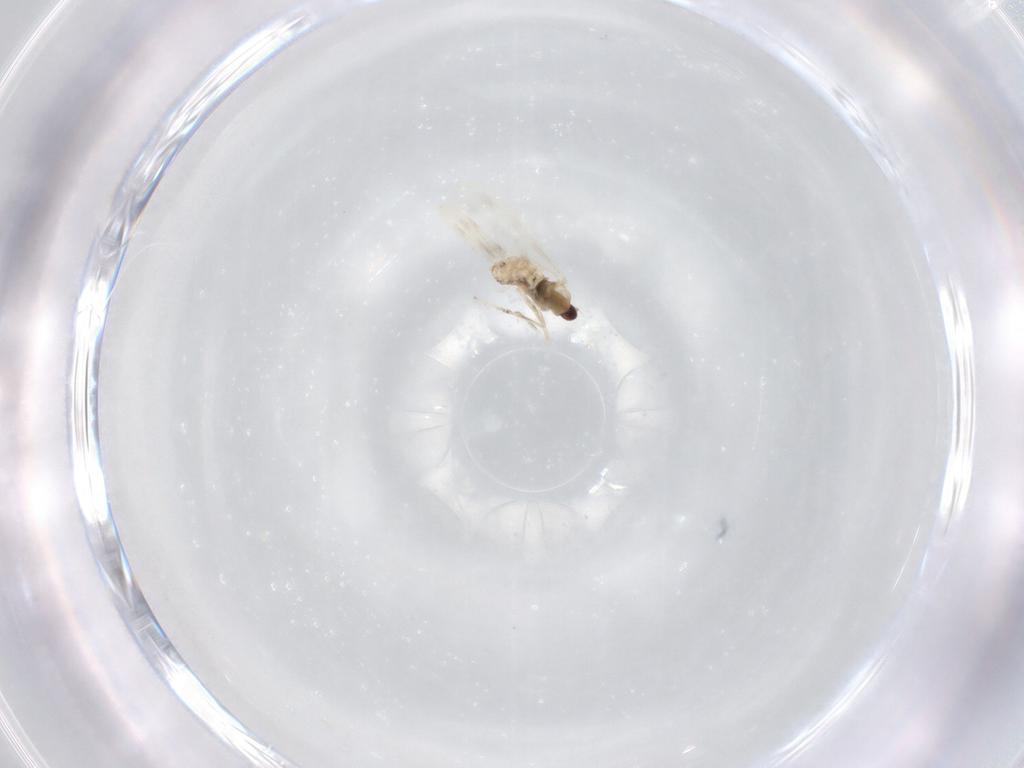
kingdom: Animalia
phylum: Arthropoda
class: Insecta
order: Diptera
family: Cecidomyiidae
